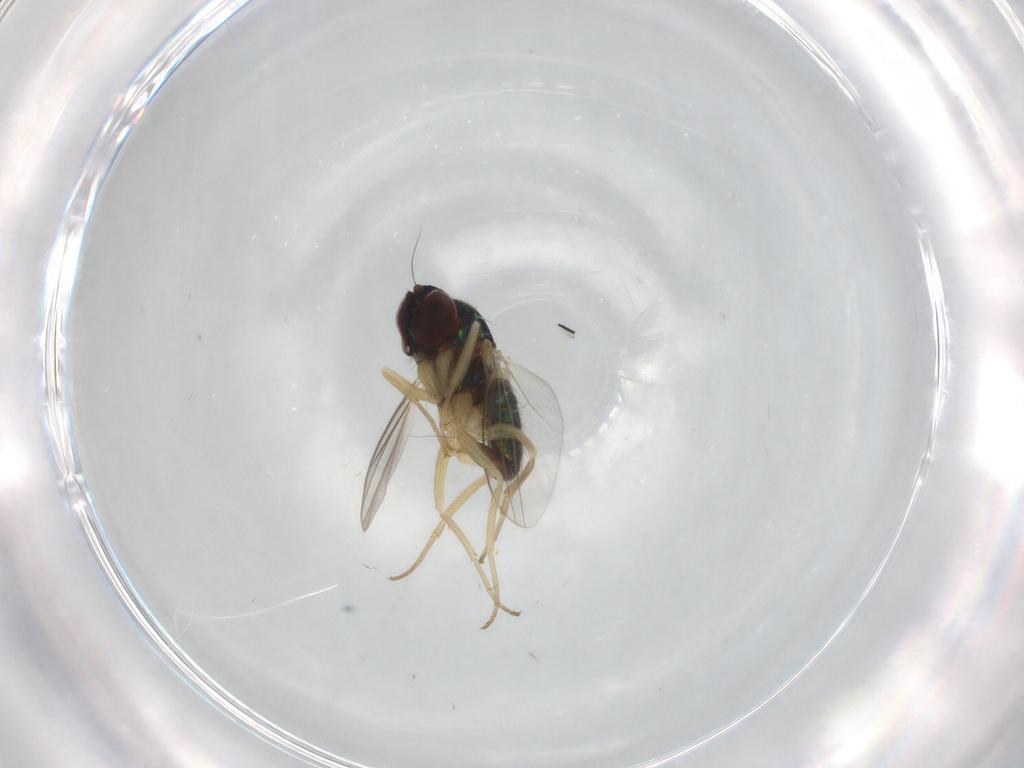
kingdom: Animalia
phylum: Arthropoda
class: Insecta
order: Diptera
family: Dolichopodidae
